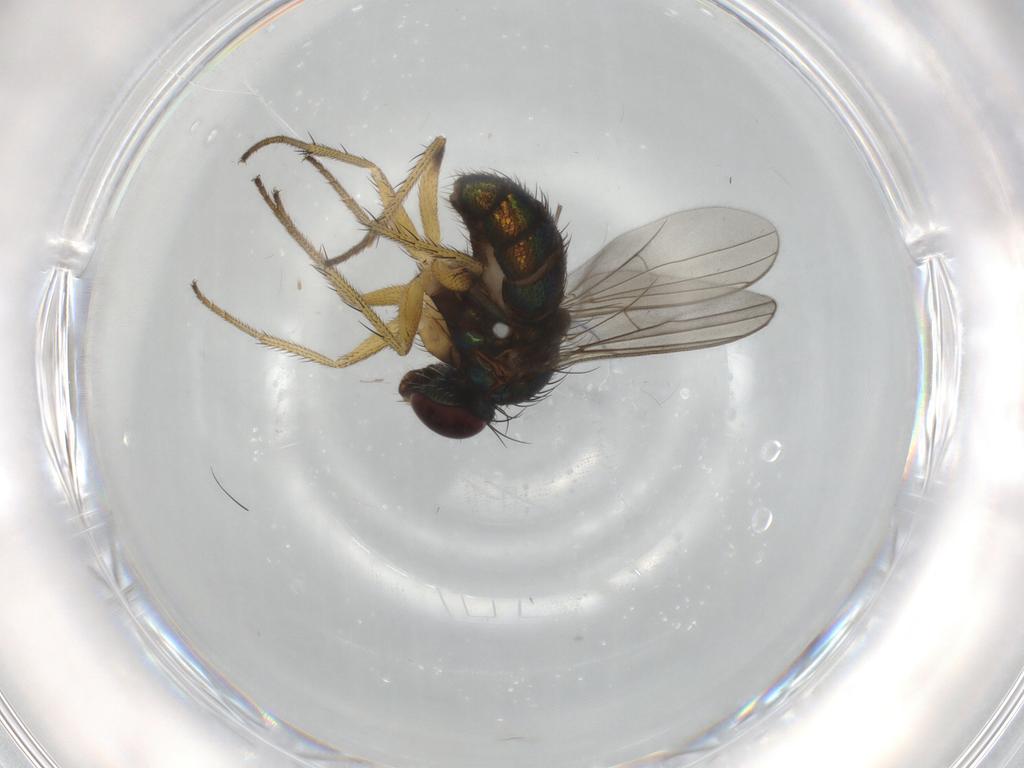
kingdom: Animalia
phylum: Arthropoda
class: Insecta
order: Diptera
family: Dolichopodidae
